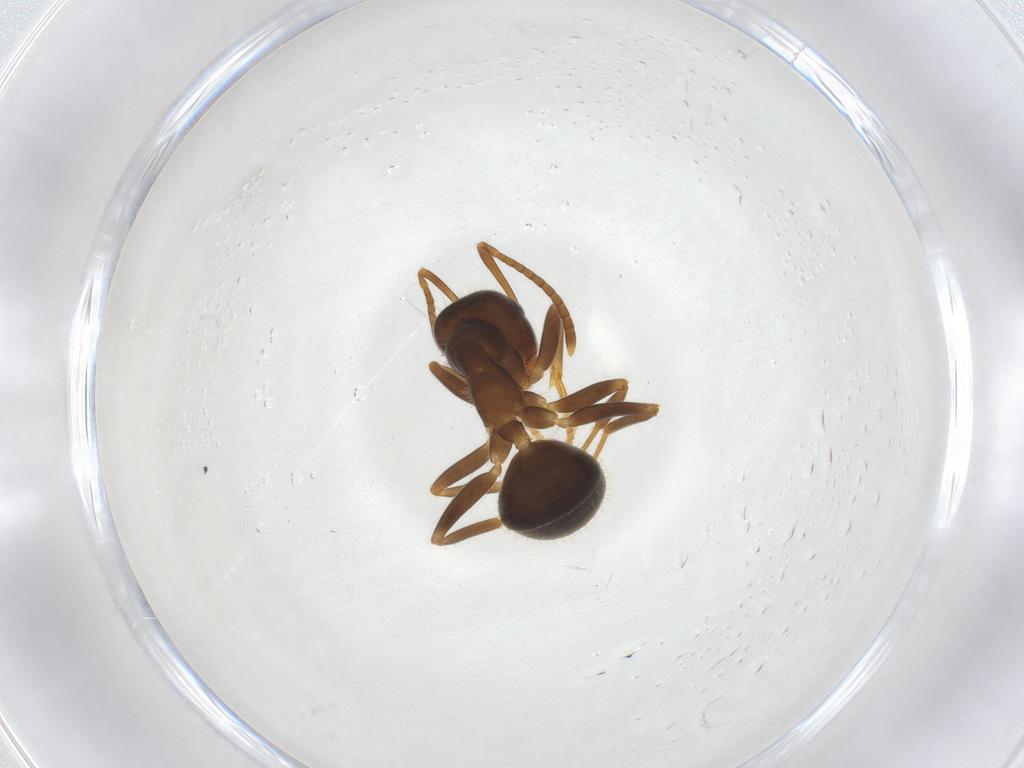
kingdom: Animalia
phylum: Arthropoda
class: Insecta
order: Hymenoptera
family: Formicidae
